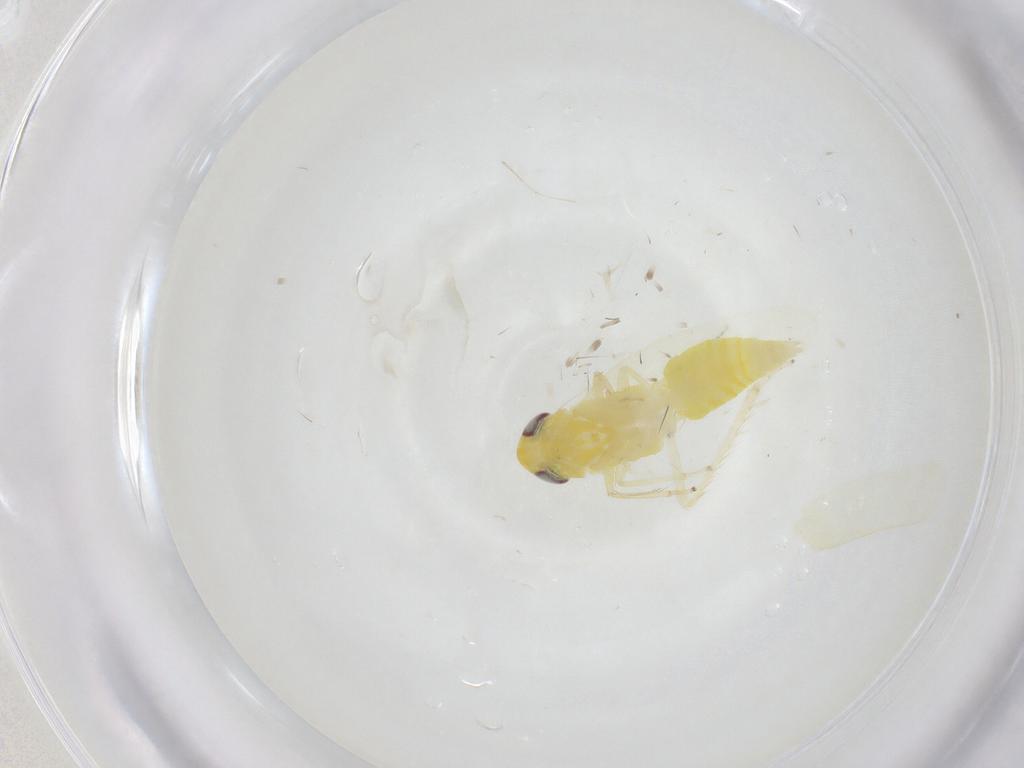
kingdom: Animalia
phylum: Arthropoda
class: Insecta
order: Hemiptera
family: Cicadellidae
